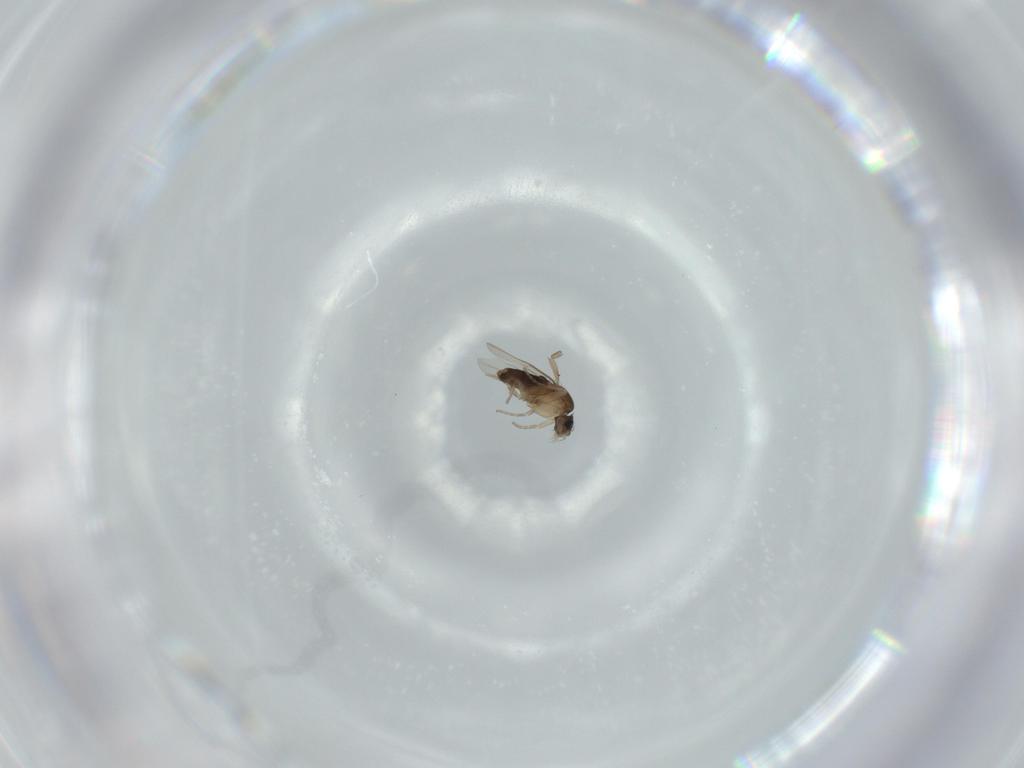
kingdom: Animalia
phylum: Arthropoda
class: Insecta
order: Diptera
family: Phoridae
